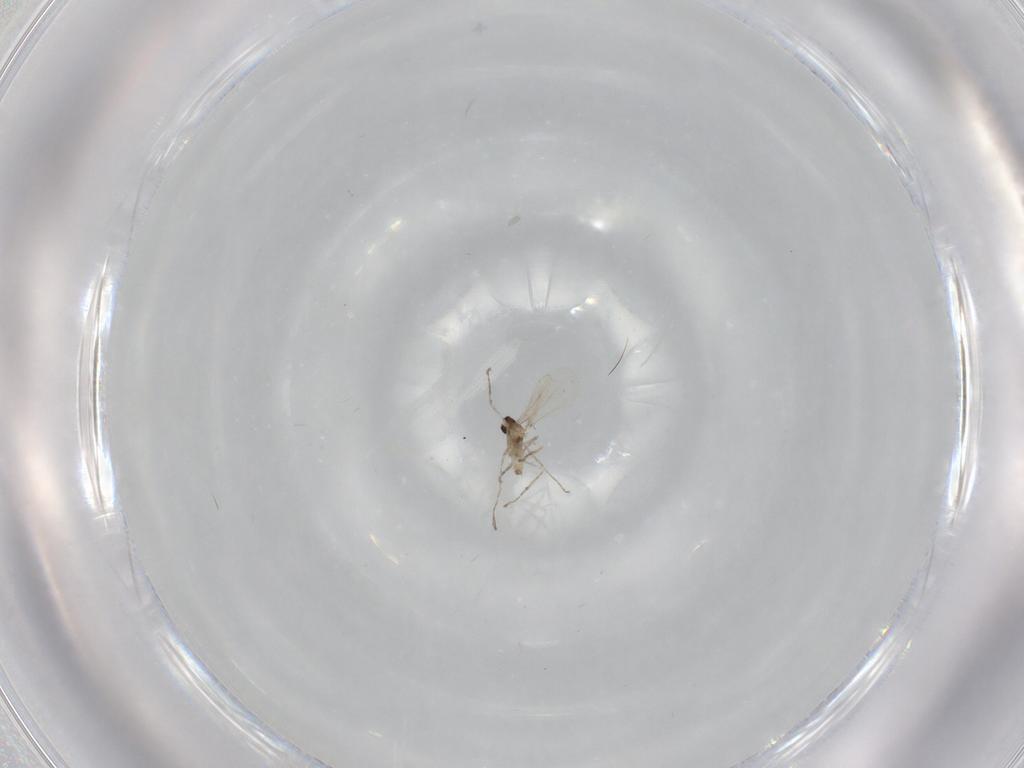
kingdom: Animalia
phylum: Arthropoda
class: Insecta
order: Diptera
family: Cecidomyiidae
